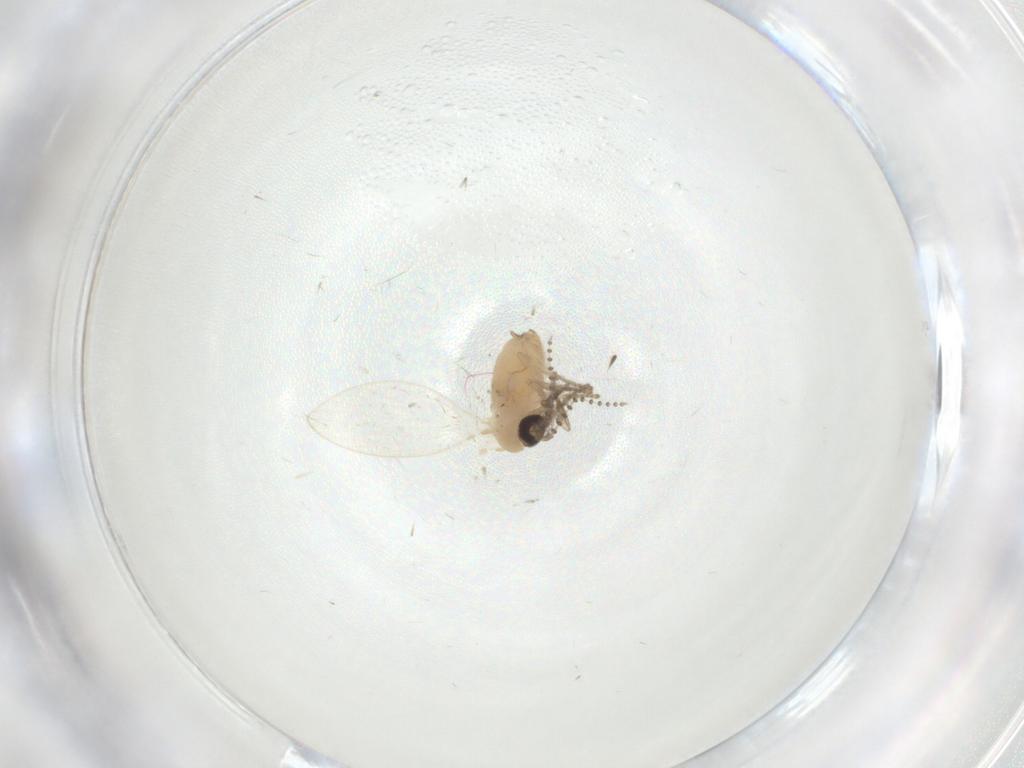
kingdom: Animalia
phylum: Arthropoda
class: Insecta
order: Diptera
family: Psychodidae
